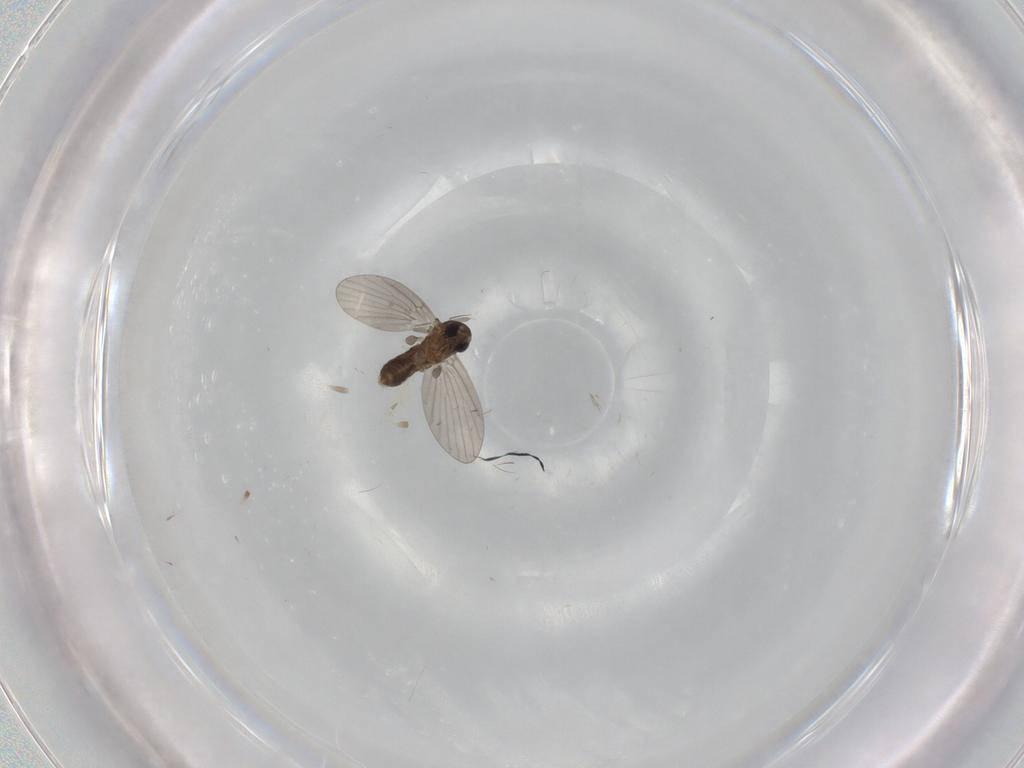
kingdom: Animalia
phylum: Arthropoda
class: Insecta
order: Diptera
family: Psychodidae
